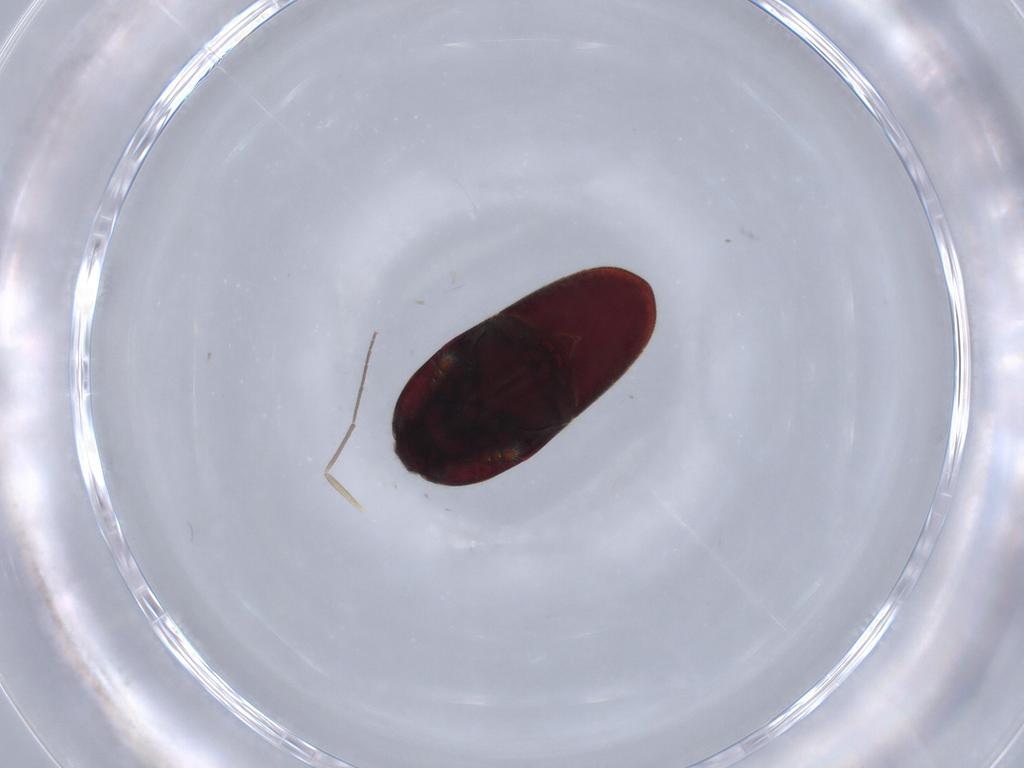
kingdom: Animalia
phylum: Arthropoda
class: Insecta
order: Coleoptera
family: Throscidae
